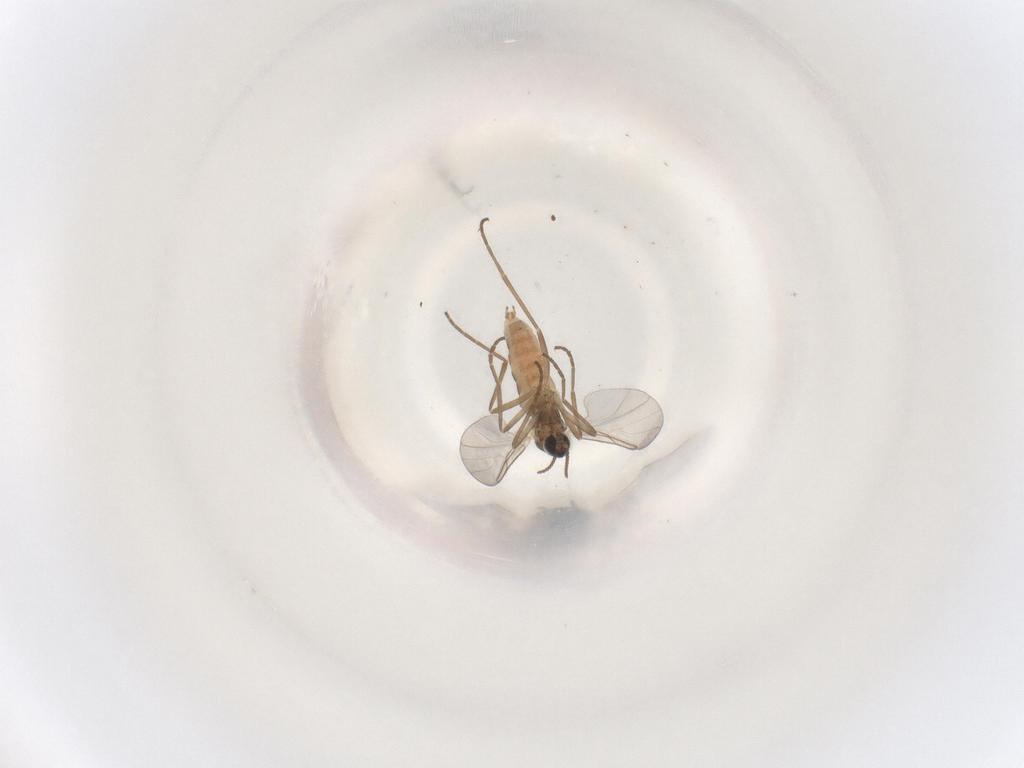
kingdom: Animalia
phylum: Arthropoda
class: Insecta
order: Diptera
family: Cecidomyiidae
